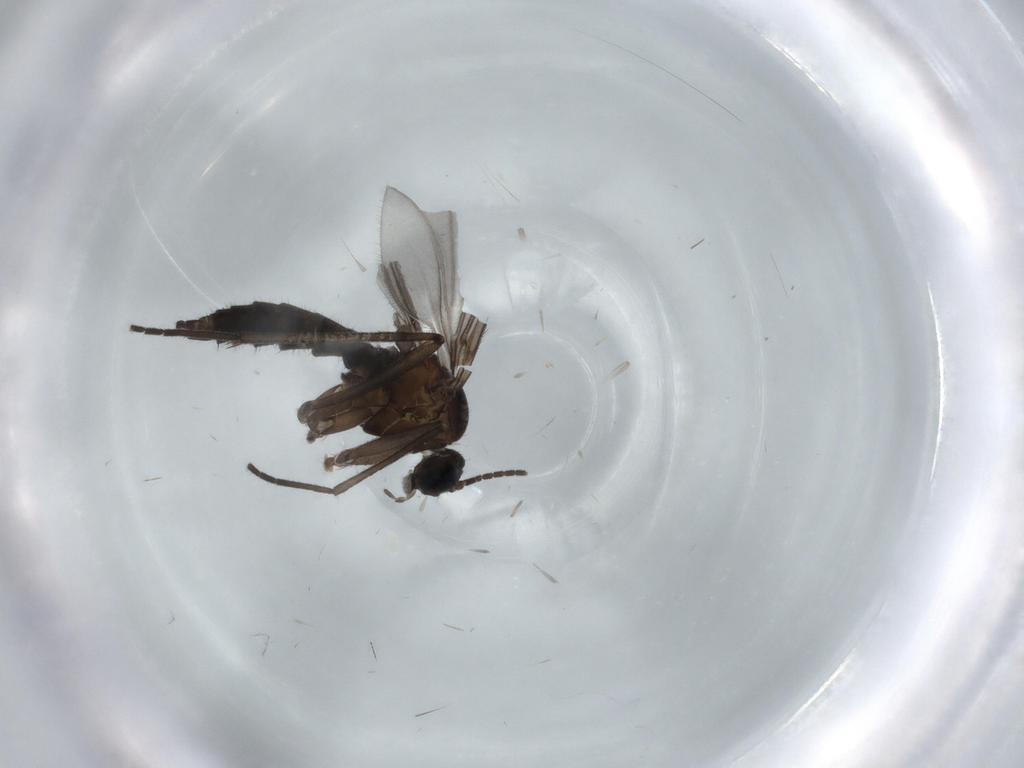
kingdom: Animalia
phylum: Arthropoda
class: Insecta
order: Diptera
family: Sciaridae
